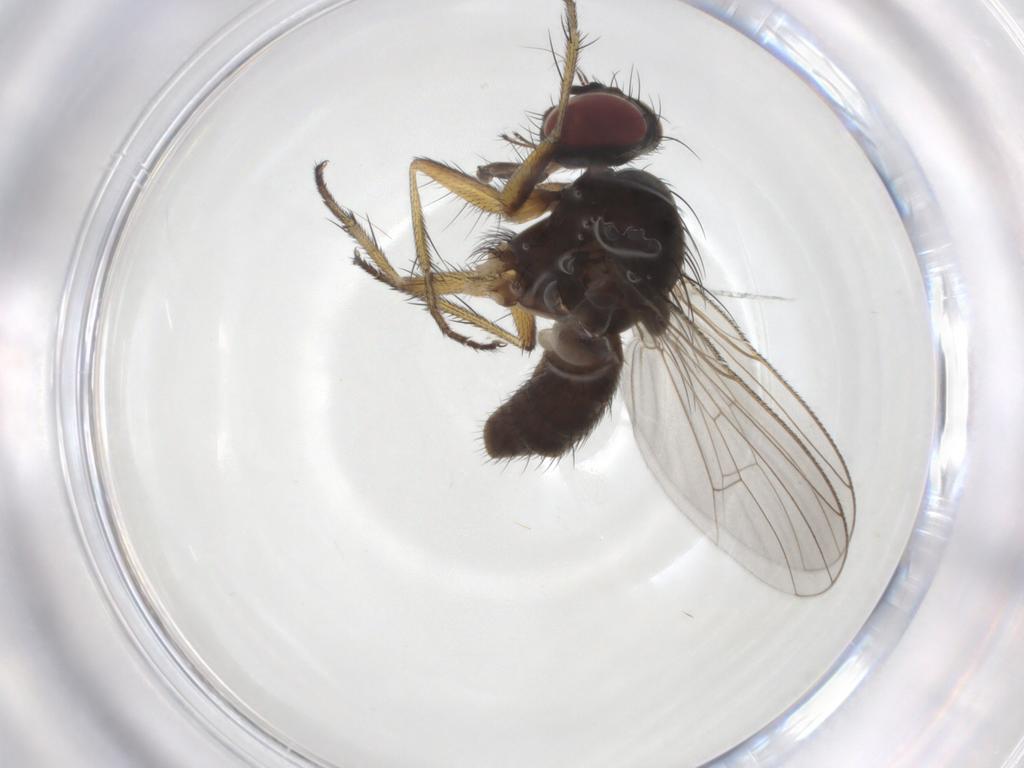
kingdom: Animalia
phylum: Arthropoda
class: Insecta
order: Diptera
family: Muscidae
